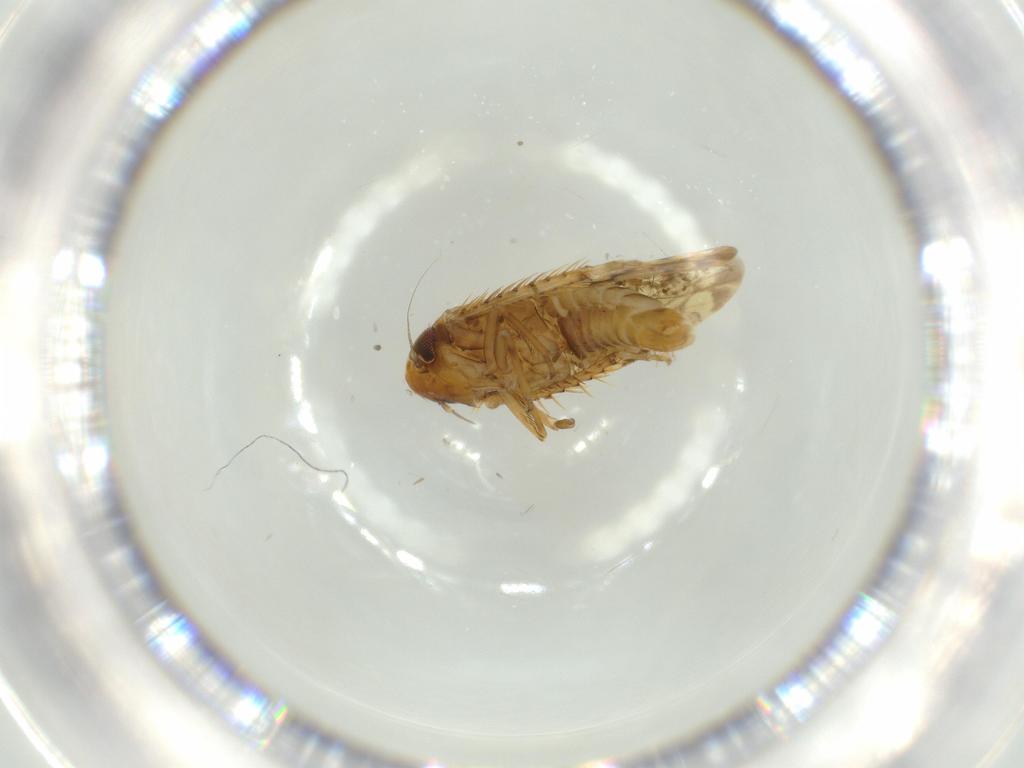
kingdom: Animalia
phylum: Arthropoda
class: Insecta
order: Hemiptera
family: Cicadellidae
